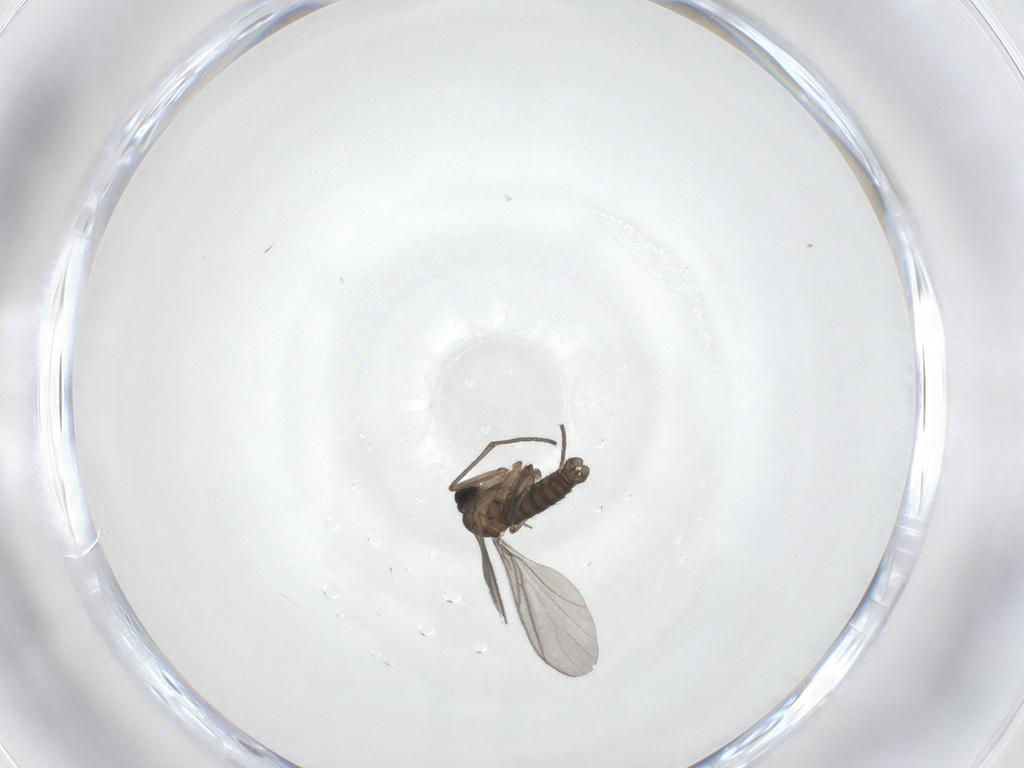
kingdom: Animalia
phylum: Arthropoda
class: Insecta
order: Diptera
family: Sciaridae
